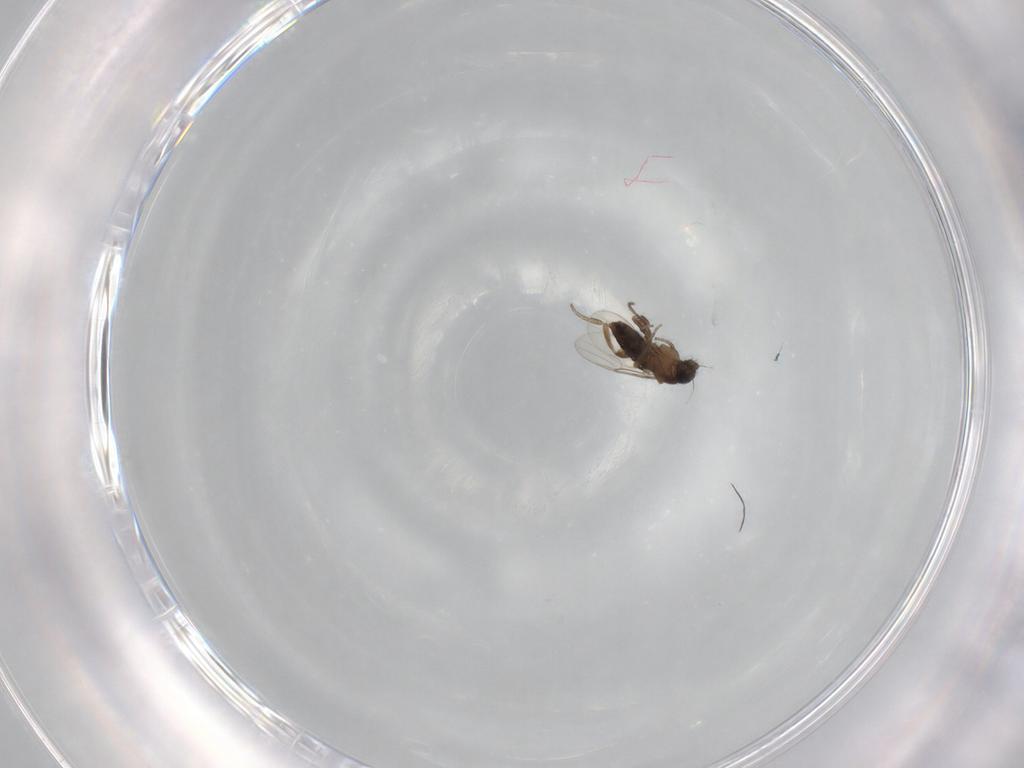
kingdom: Animalia
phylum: Arthropoda
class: Insecta
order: Diptera
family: Phoridae
